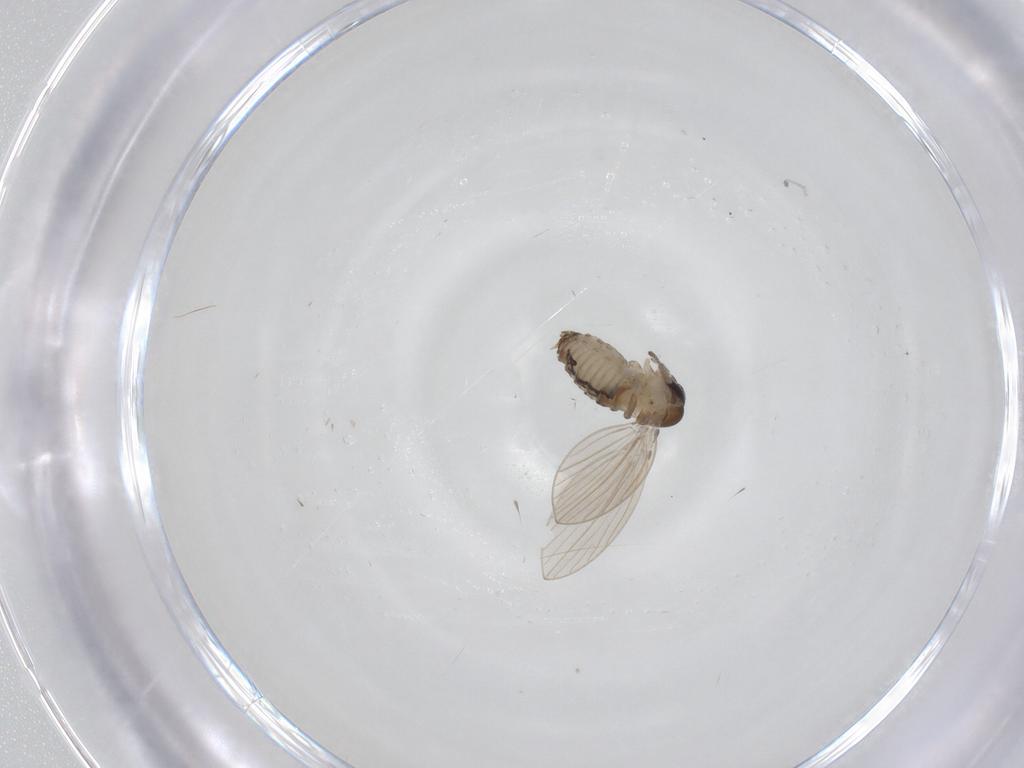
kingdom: Animalia
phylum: Arthropoda
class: Insecta
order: Diptera
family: Psychodidae
